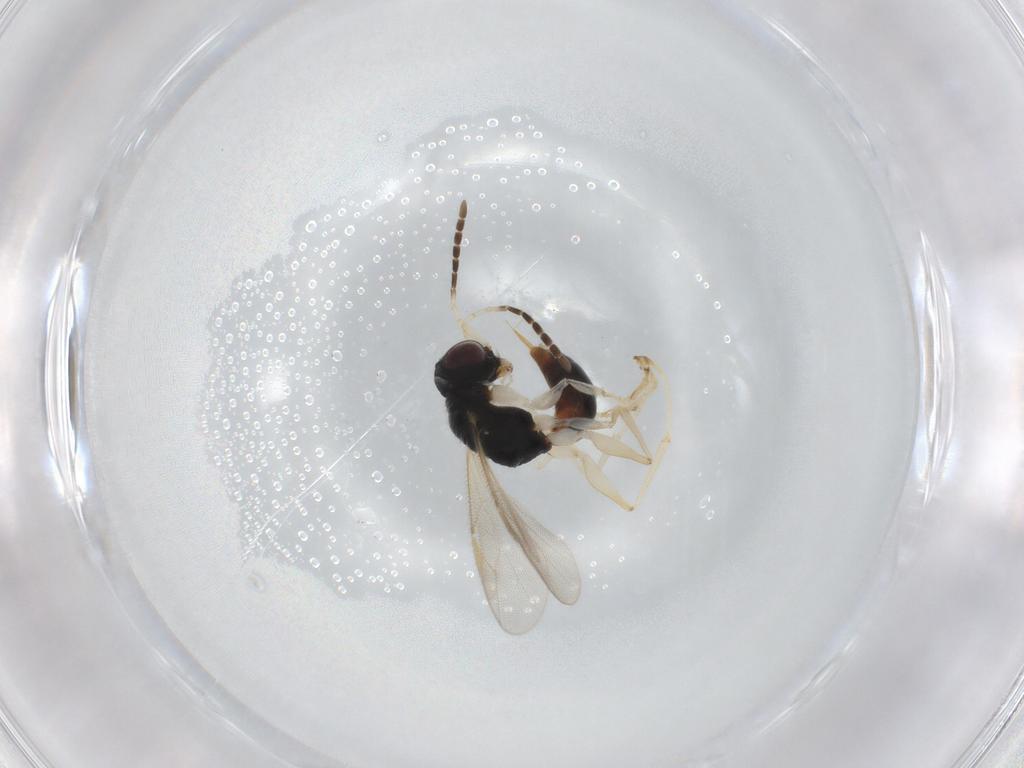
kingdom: Animalia
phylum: Arthropoda
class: Insecta
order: Hymenoptera
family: Dryinidae
